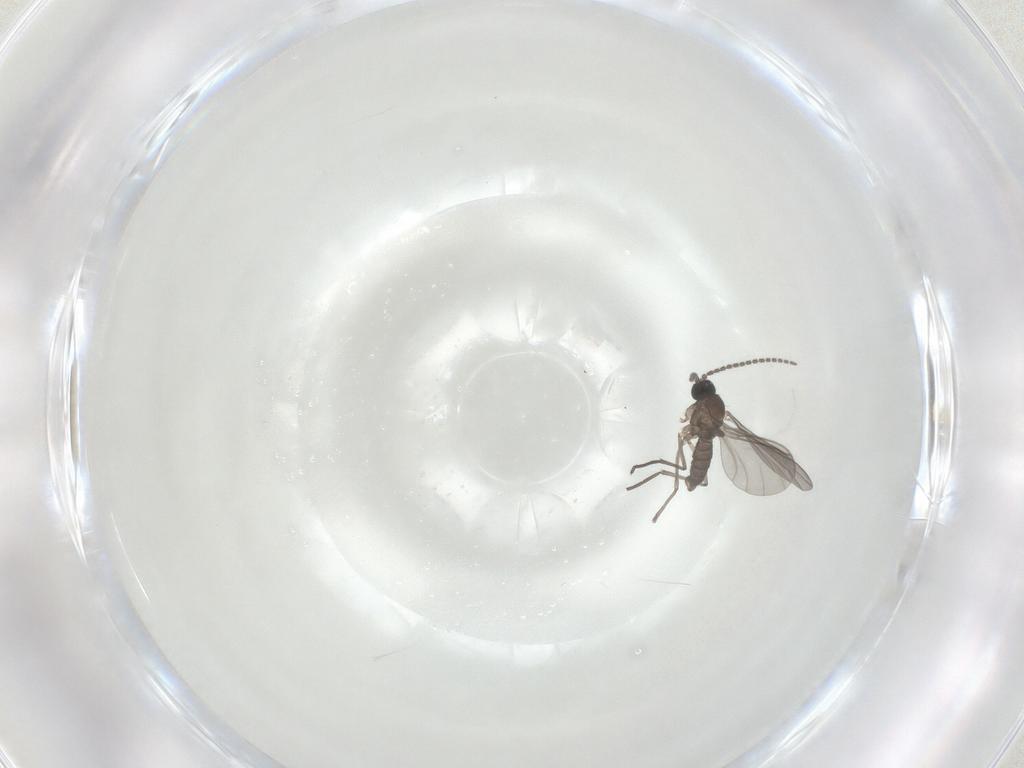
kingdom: Animalia
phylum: Arthropoda
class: Insecta
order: Diptera
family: Sciaridae
